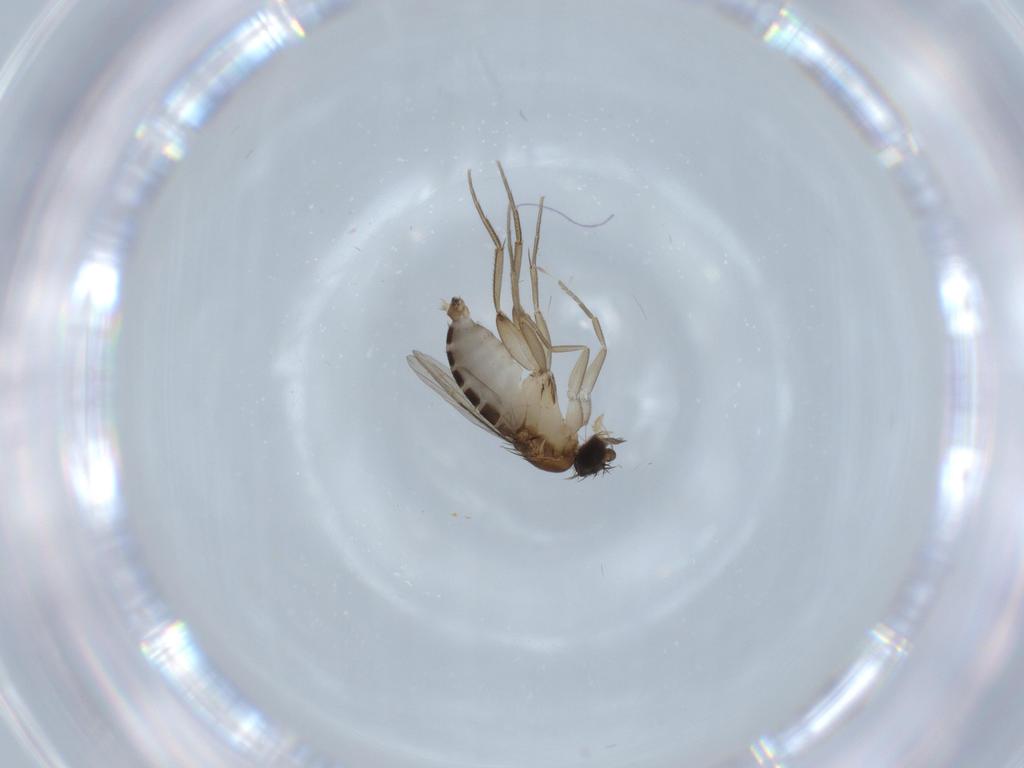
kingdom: Animalia
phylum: Arthropoda
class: Insecta
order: Diptera
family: Phoridae
